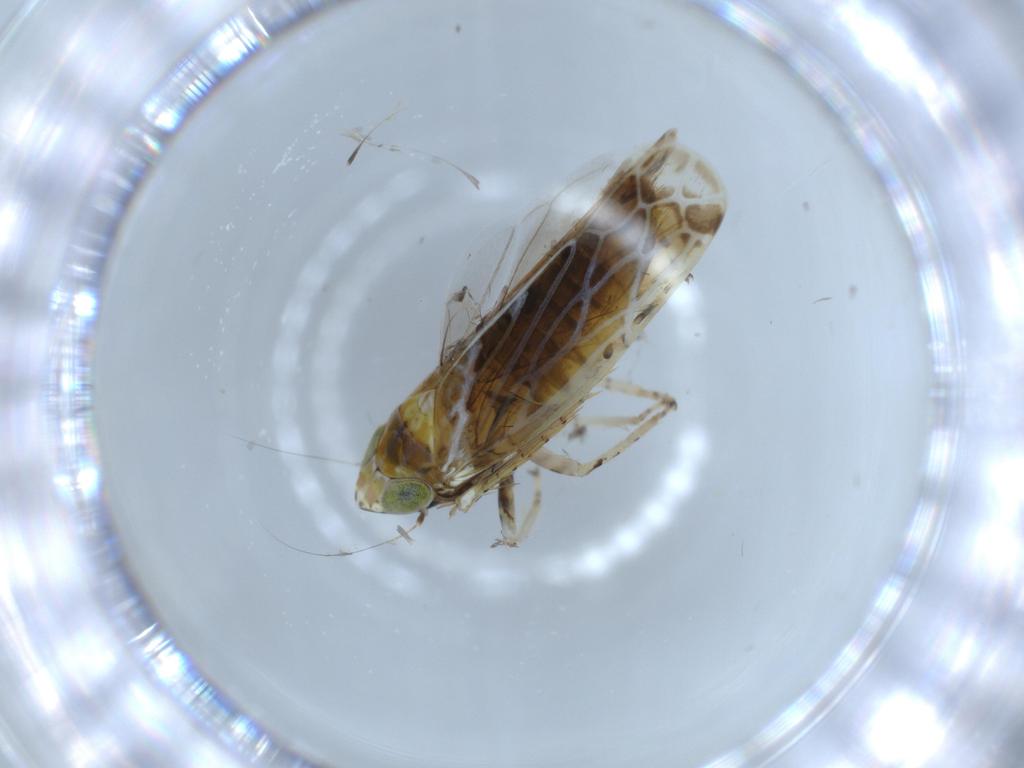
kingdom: Animalia
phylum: Arthropoda
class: Insecta
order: Hemiptera
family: Cicadellidae
